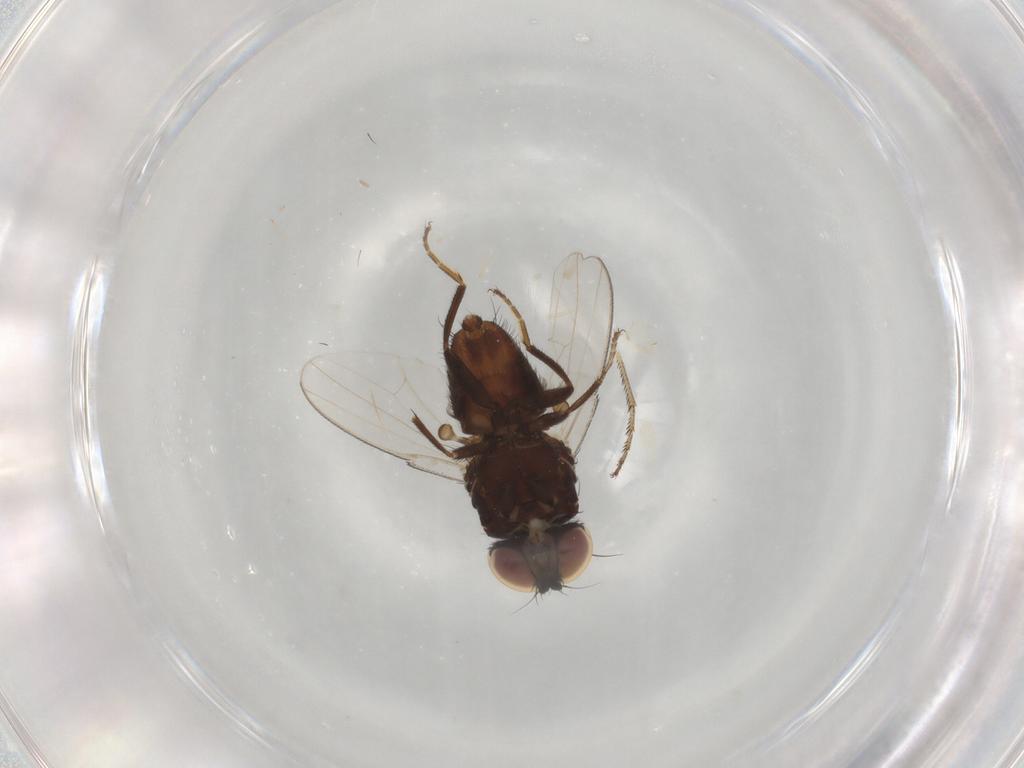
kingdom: Animalia
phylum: Arthropoda
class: Insecta
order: Diptera
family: Milichiidae
